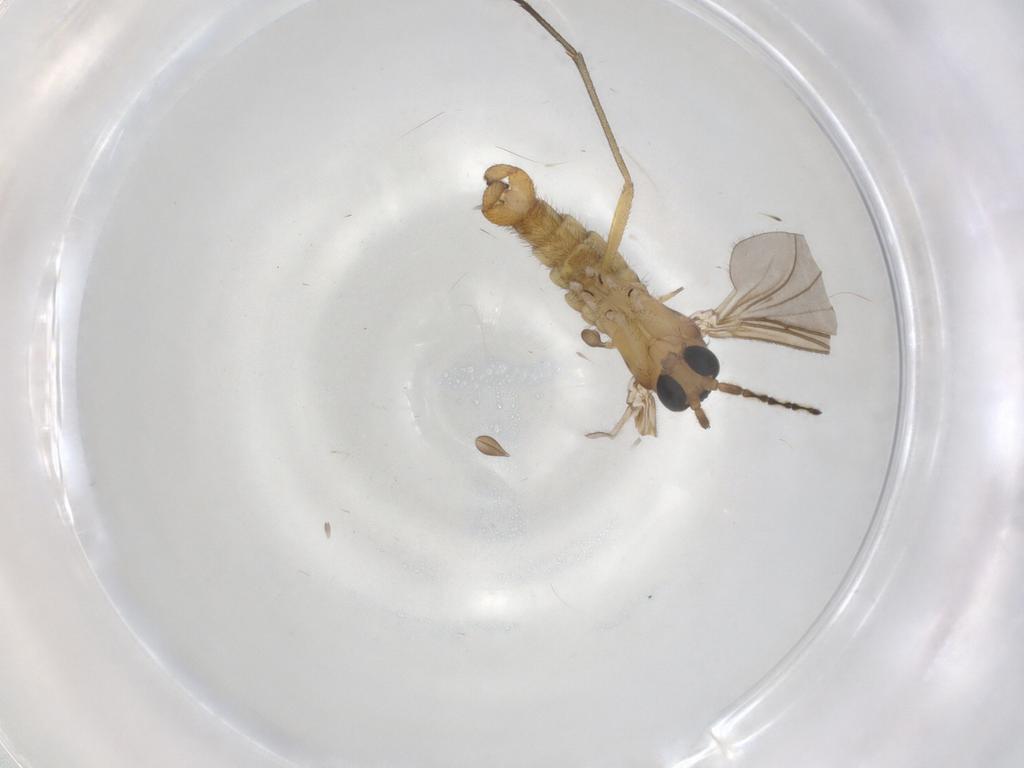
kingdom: Animalia
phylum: Arthropoda
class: Insecta
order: Diptera
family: Sciaridae
